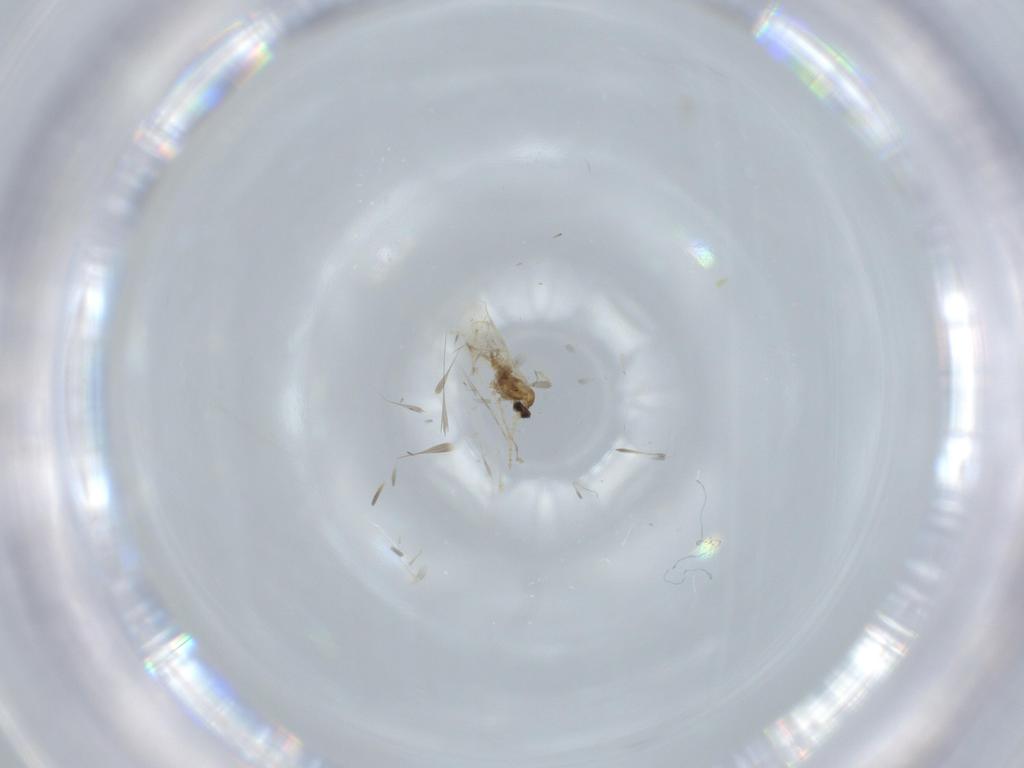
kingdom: Animalia
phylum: Arthropoda
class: Insecta
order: Diptera
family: Cecidomyiidae
